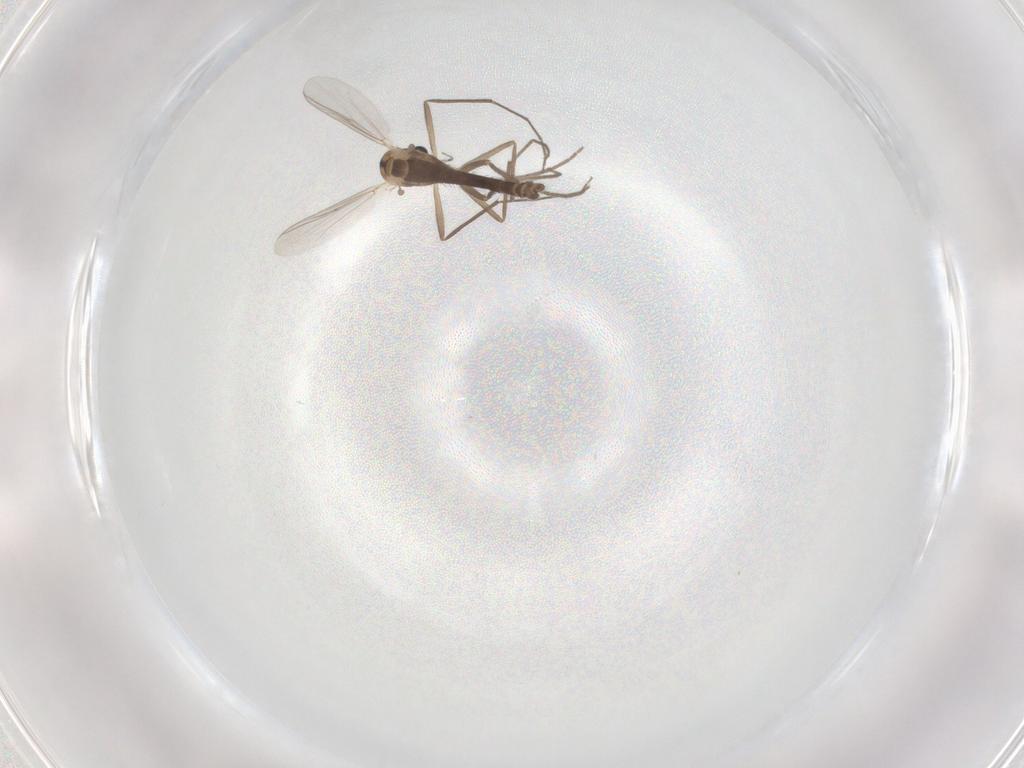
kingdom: Animalia
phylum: Arthropoda
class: Insecta
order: Diptera
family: Chironomidae
